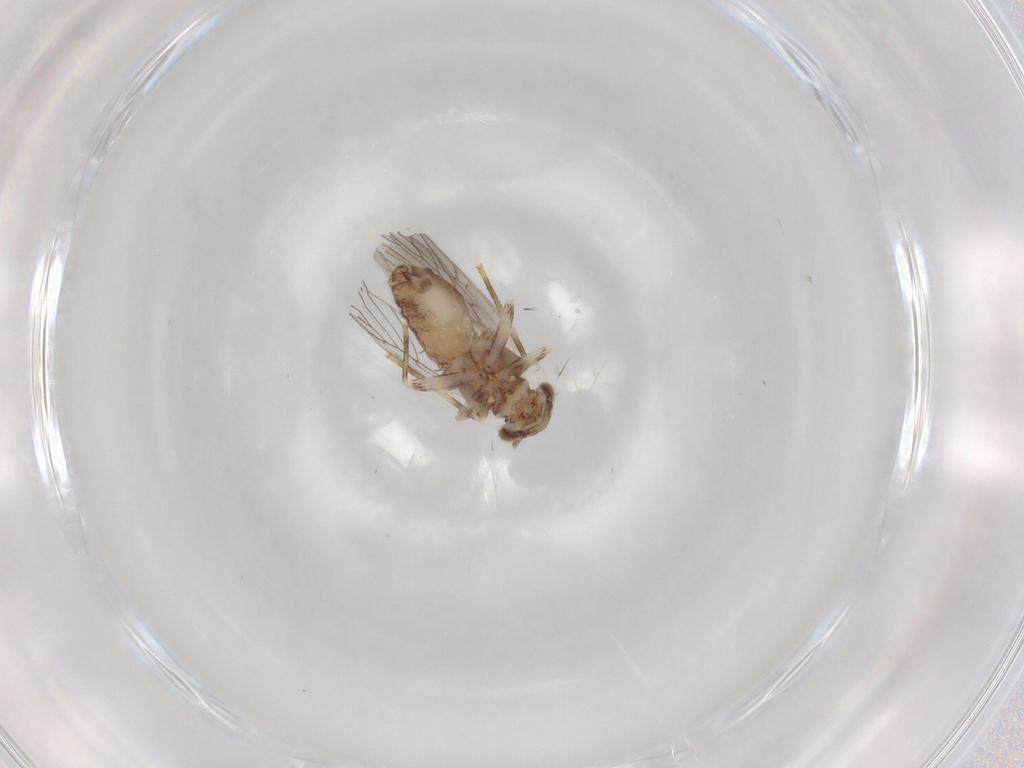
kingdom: Animalia
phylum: Arthropoda
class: Insecta
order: Psocodea
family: Lepidopsocidae
